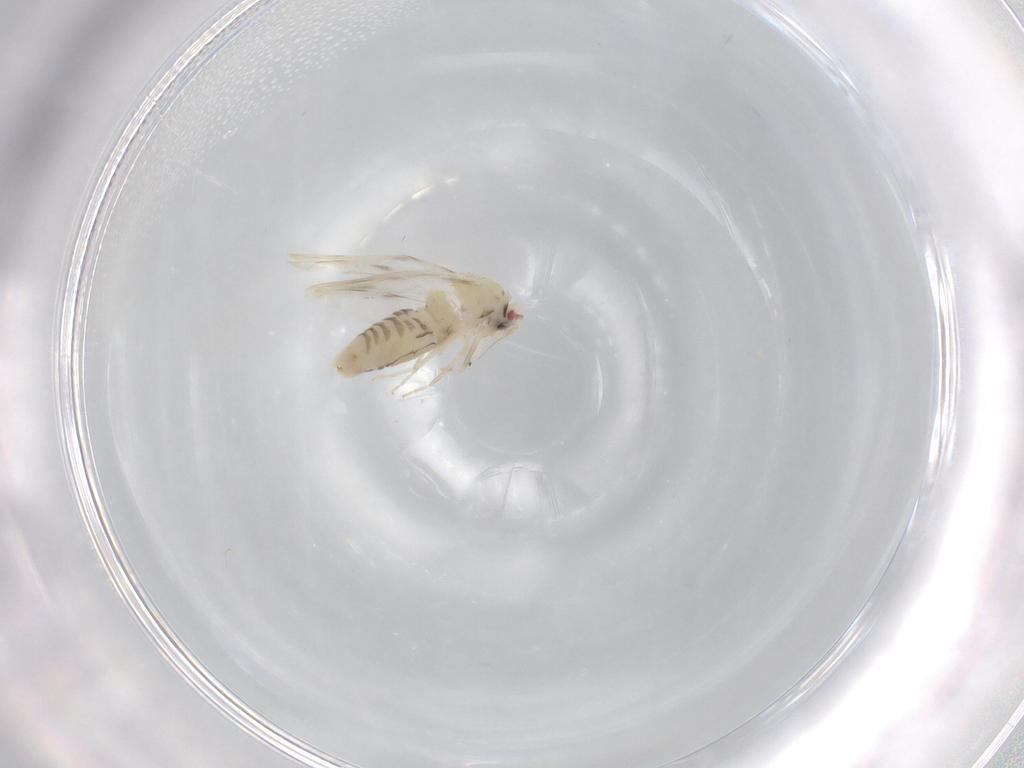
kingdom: Animalia
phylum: Arthropoda
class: Insecta
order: Hemiptera
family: Aleyrodidae
